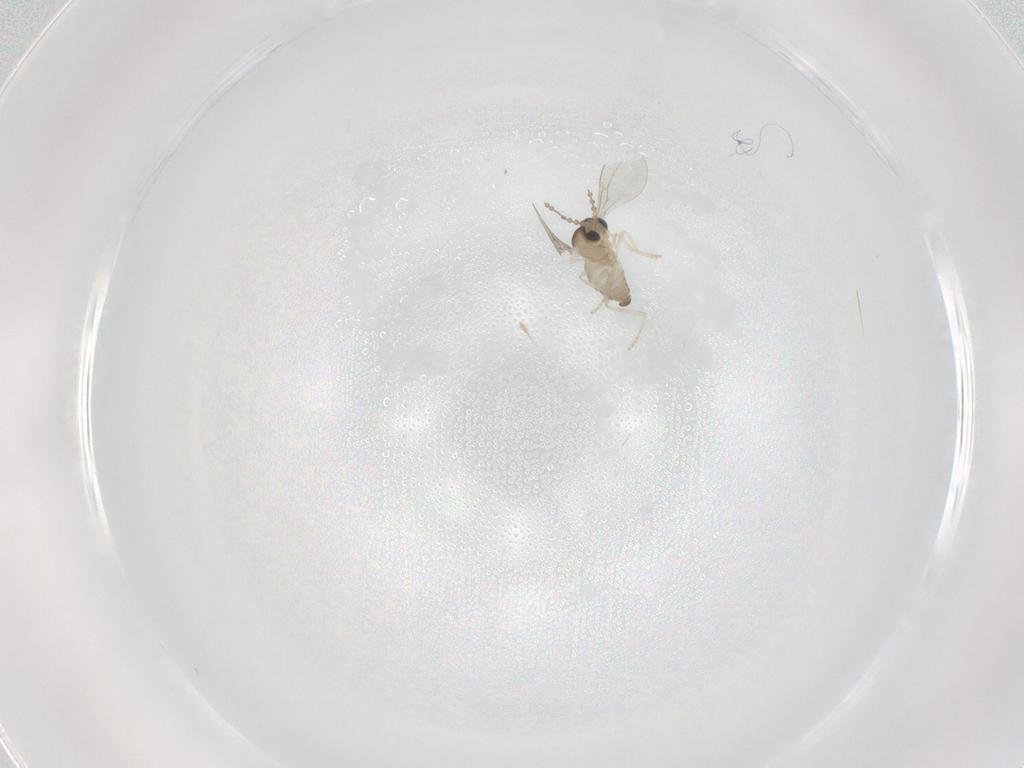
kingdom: Animalia
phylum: Arthropoda
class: Insecta
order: Diptera
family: Cecidomyiidae
